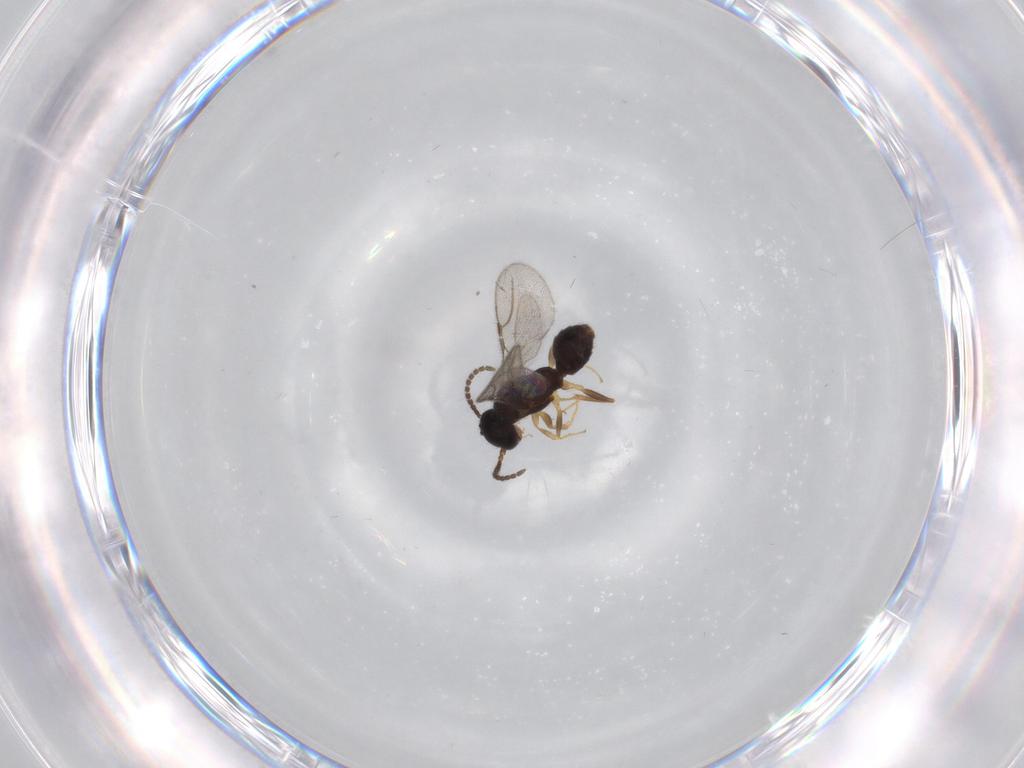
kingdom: Animalia
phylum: Arthropoda
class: Insecta
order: Hymenoptera
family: Bethylidae
